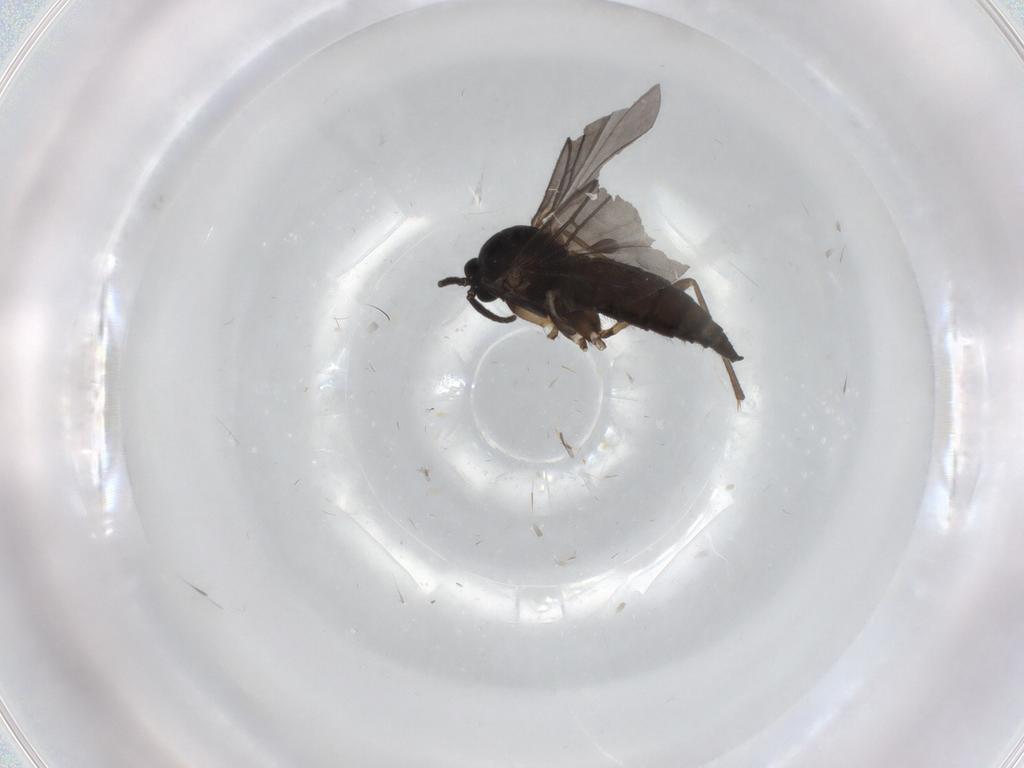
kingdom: Animalia
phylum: Arthropoda
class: Insecta
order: Diptera
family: Sciaridae
